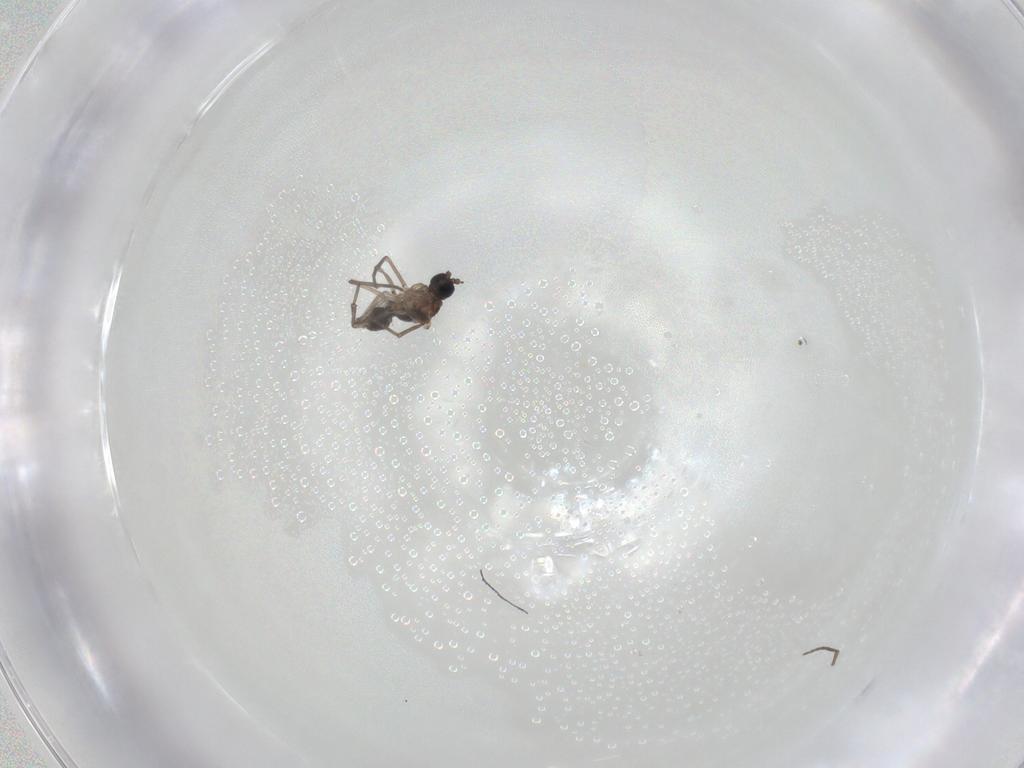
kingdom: Animalia
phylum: Arthropoda
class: Insecta
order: Diptera
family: Sciaridae
